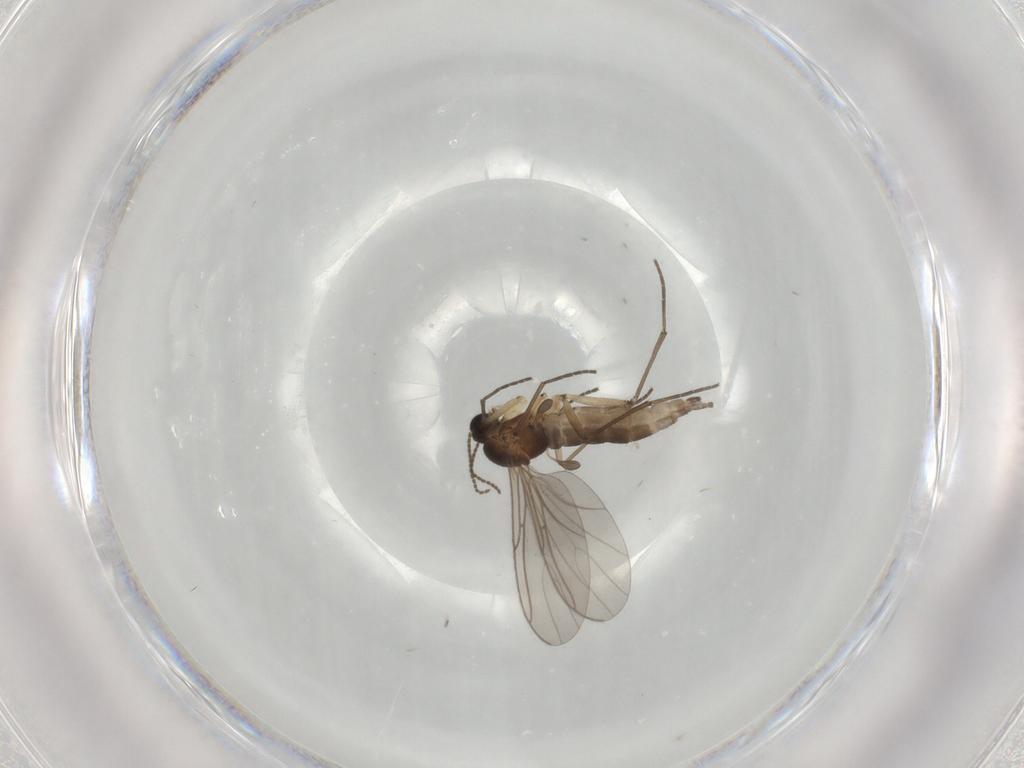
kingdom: Animalia
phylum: Arthropoda
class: Insecta
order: Diptera
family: Sciaridae
